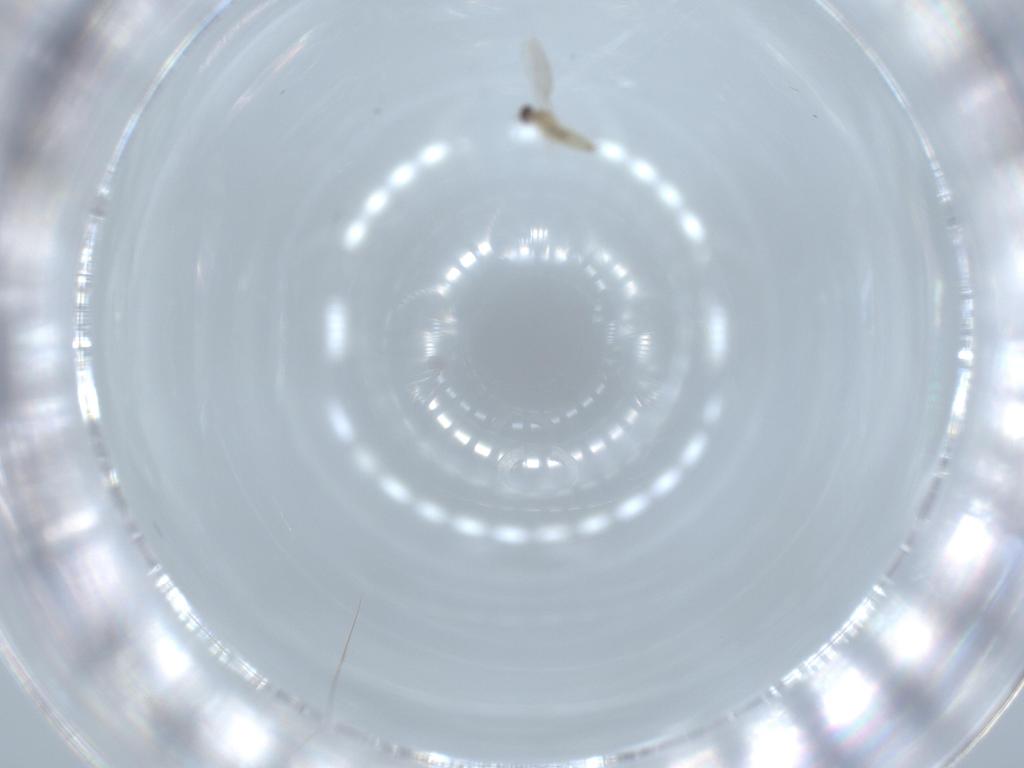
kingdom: Animalia
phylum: Arthropoda
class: Insecta
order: Diptera
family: Cecidomyiidae
